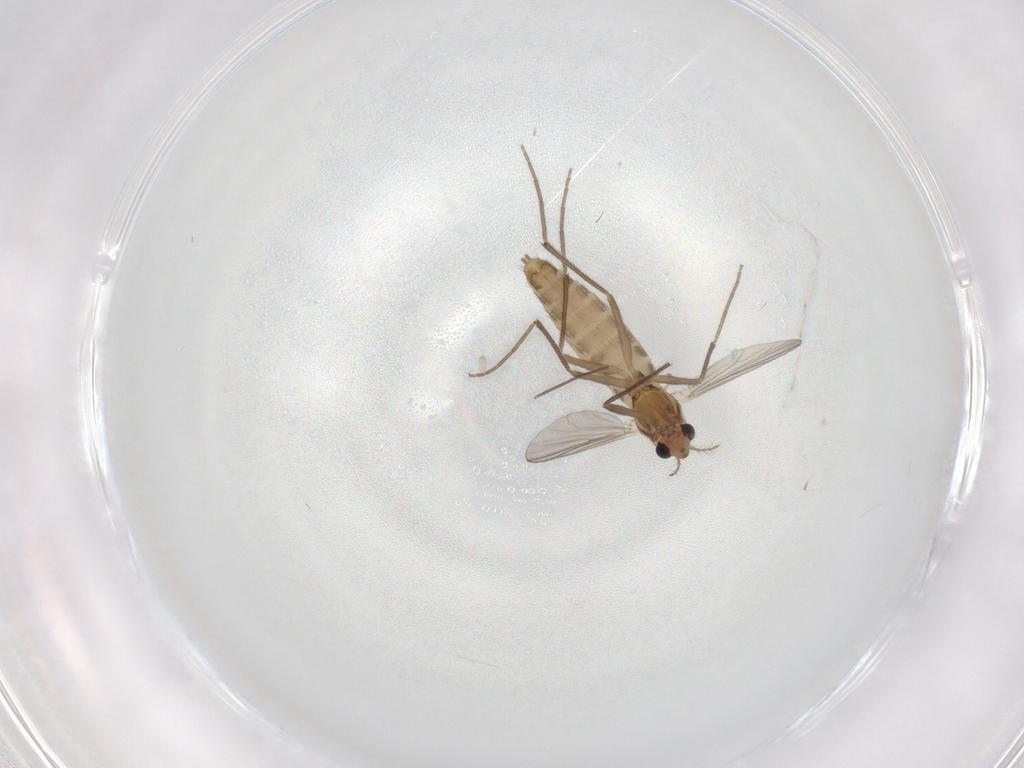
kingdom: Animalia
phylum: Arthropoda
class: Insecta
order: Diptera
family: Chironomidae
